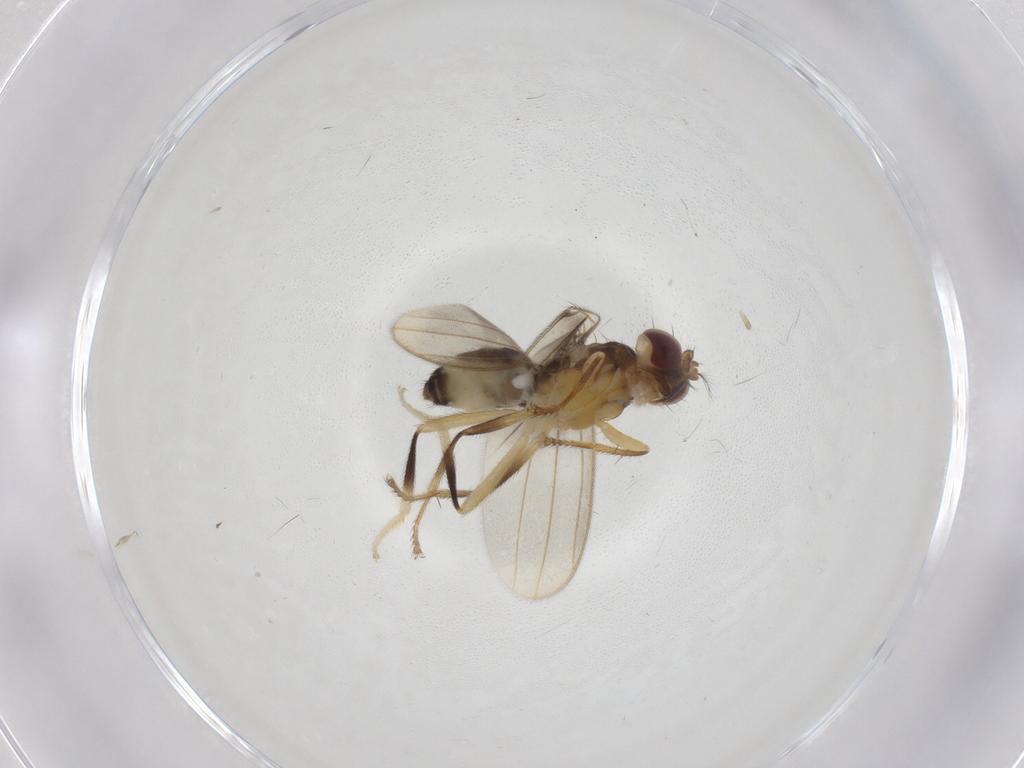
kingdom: Animalia
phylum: Arthropoda
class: Insecta
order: Diptera
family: Periscelididae
